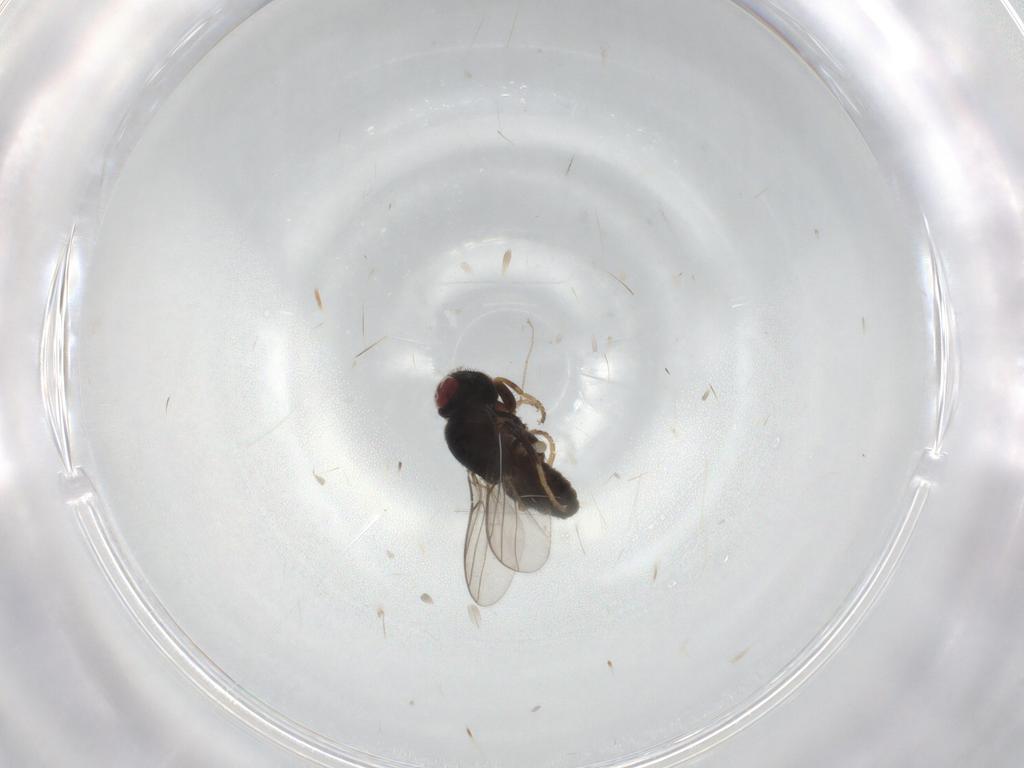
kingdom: Animalia
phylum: Arthropoda
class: Insecta
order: Diptera
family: Chloropidae
